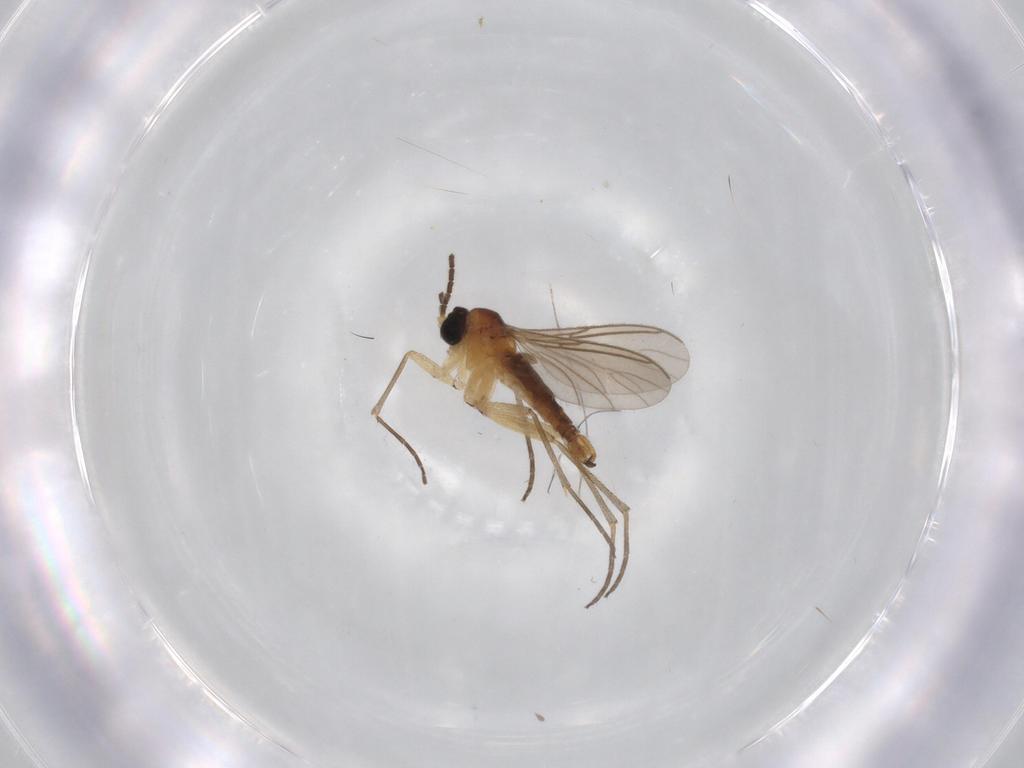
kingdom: Animalia
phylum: Arthropoda
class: Insecta
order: Diptera
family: Sciaridae
